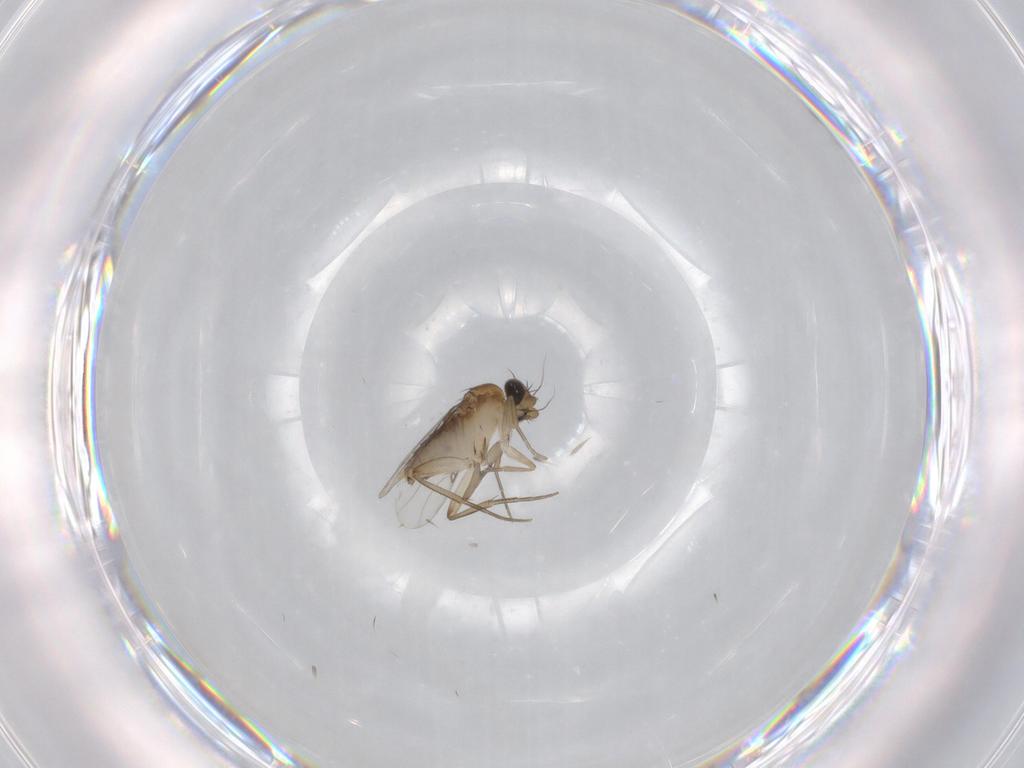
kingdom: Animalia
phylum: Arthropoda
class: Insecta
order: Diptera
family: Phoridae
